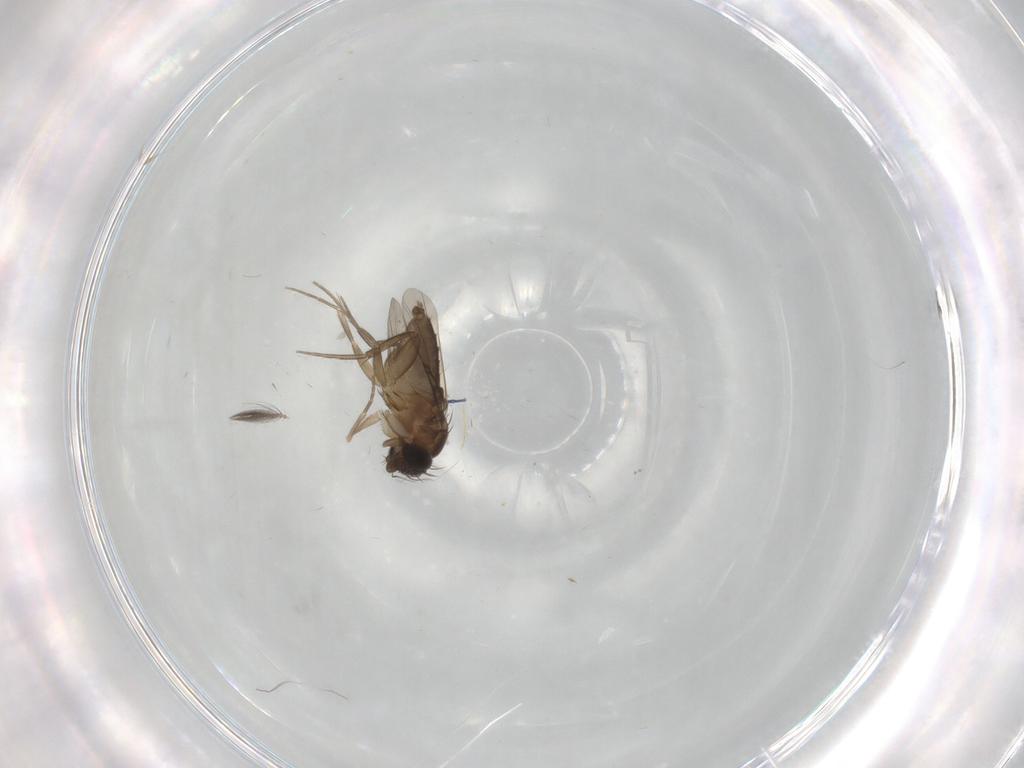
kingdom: Animalia
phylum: Arthropoda
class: Insecta
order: Diptera
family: Phoridae
